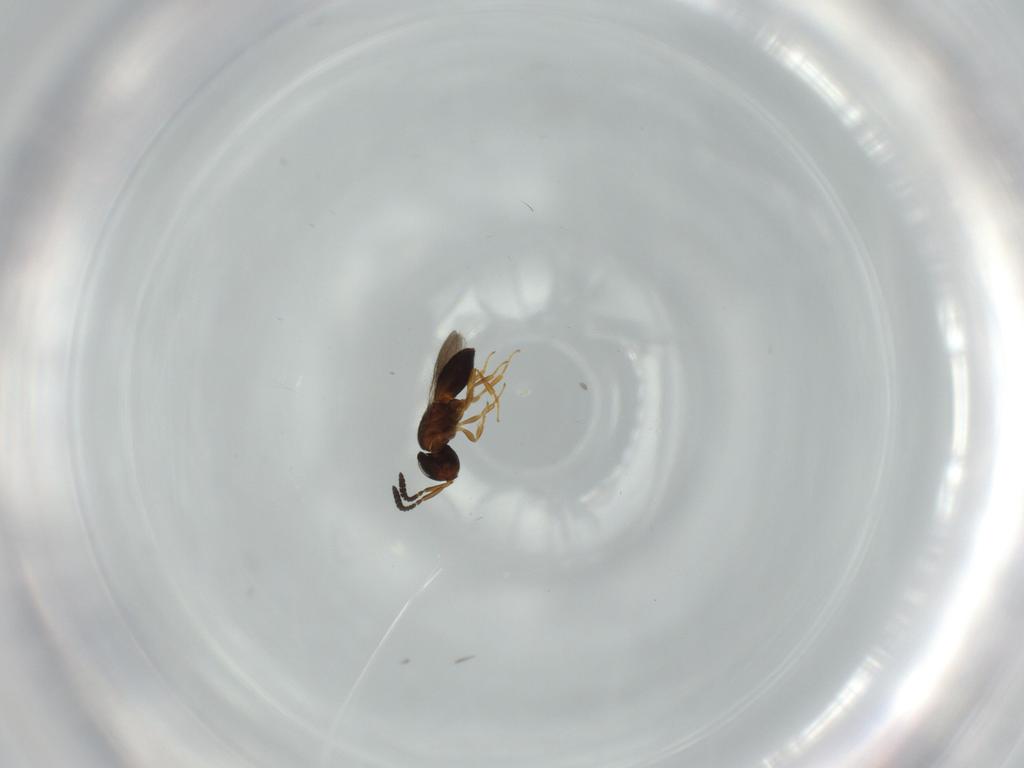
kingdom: Animalia
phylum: Arthropoda
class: Insecta
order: Hymenoptera
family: Scelionidae
